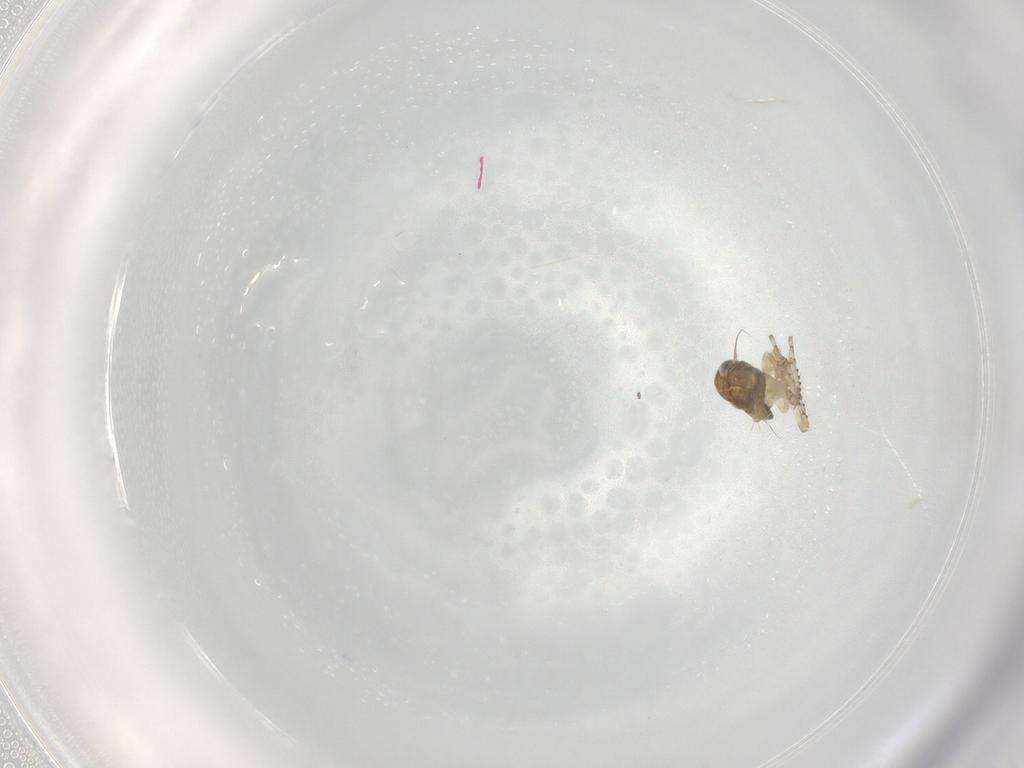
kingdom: Animalia
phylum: Arthropoda
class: Insecta
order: Hemiptera
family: Cicadellidae
